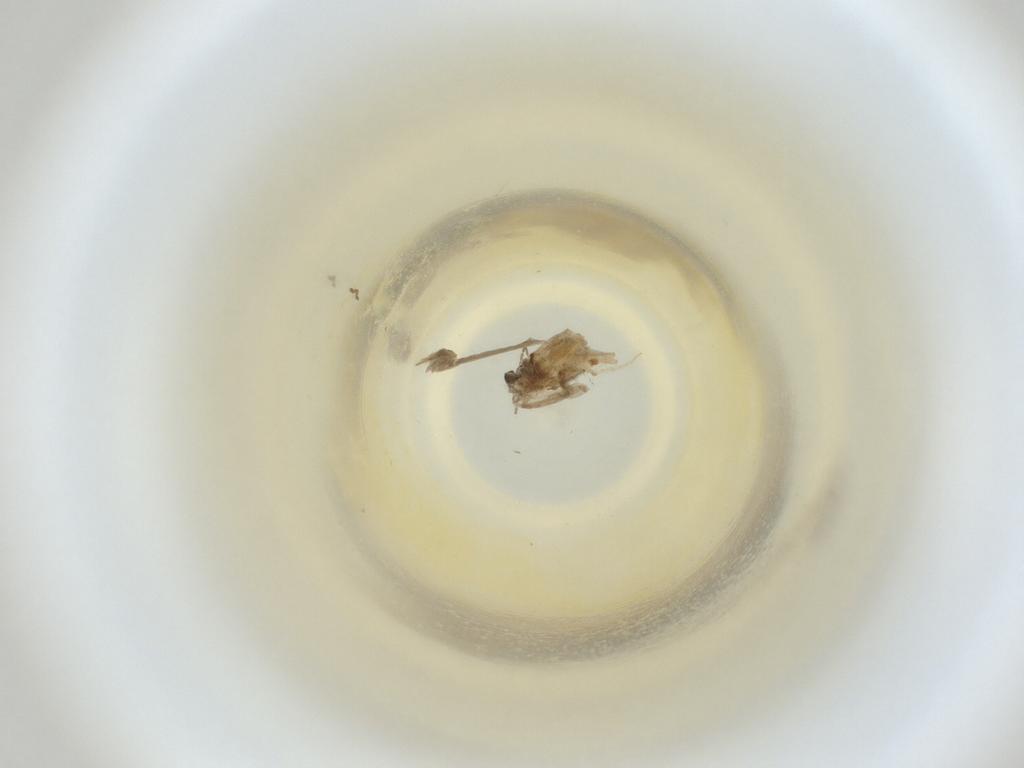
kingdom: Animalia
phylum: Arthropoda
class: Insecta
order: Diptera
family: Cecidomyiidae
